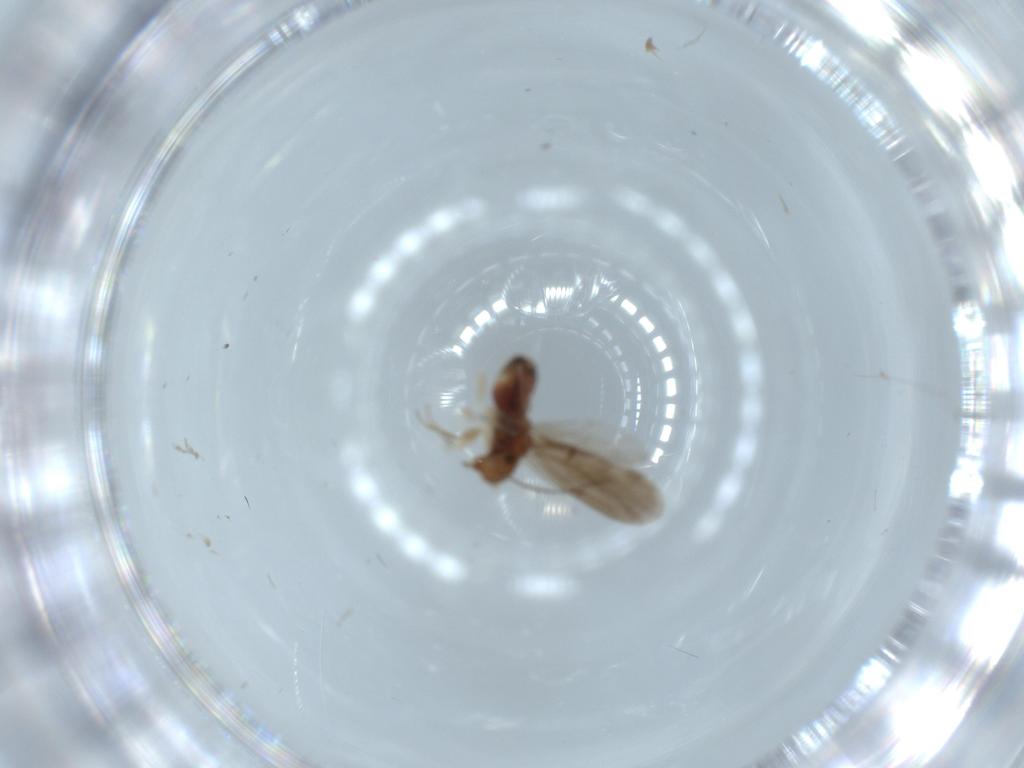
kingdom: Animalia
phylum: Arthropoda
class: Insecta
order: Psocodea
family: Ectopsocidae
